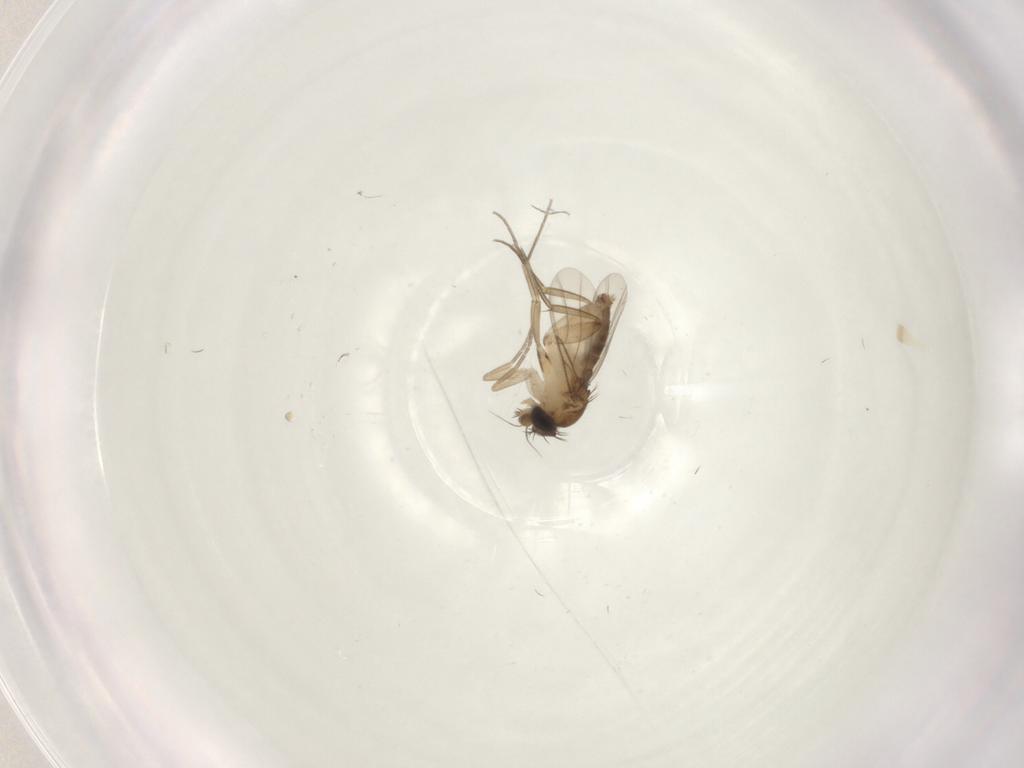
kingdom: Animalia
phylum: Arthropoda
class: Insecta
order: Diptera
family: Phoridae
